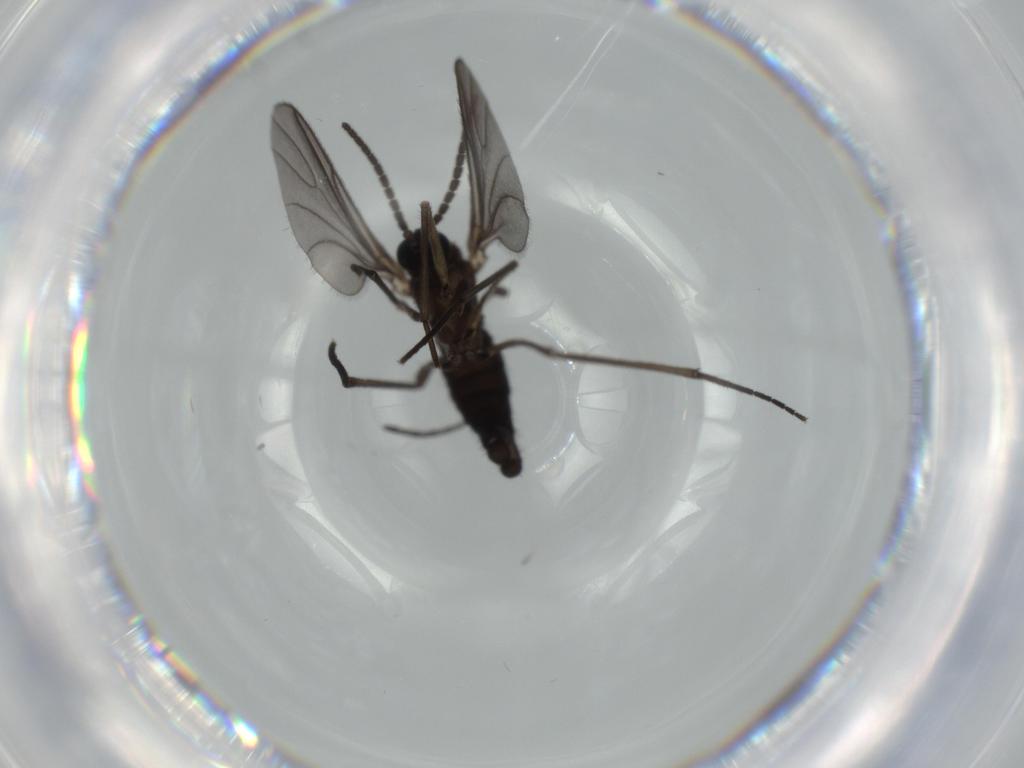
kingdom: Animalia
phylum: Arthropoda
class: Insecta
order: Diptera
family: Sciaridae
